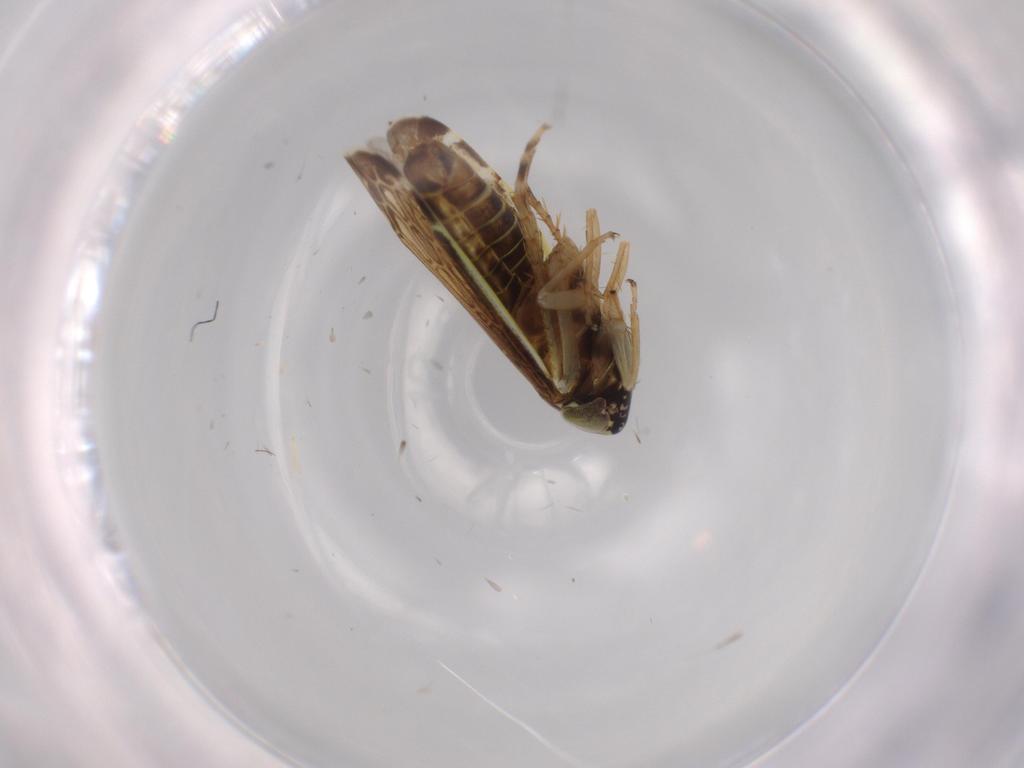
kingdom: Animalia
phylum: Arthropoda
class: Insecta
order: Hemiptera
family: Cicadellidae
